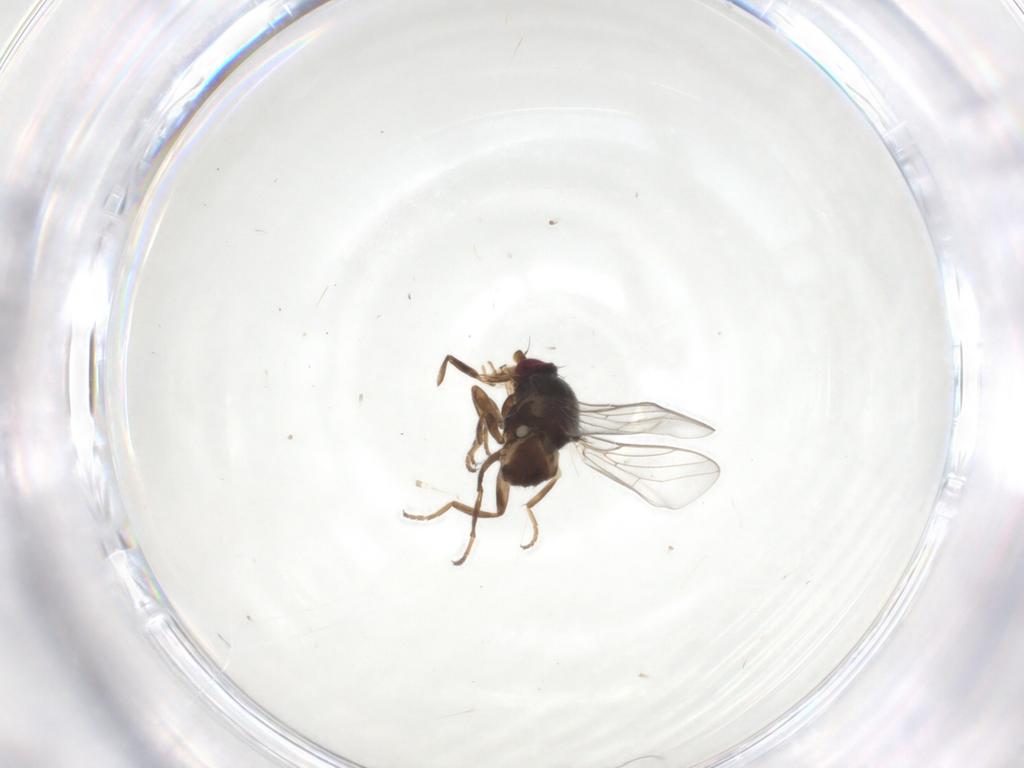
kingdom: Animalia
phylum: Arthropoda
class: Insecta
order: Diptera
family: Chloropidae
